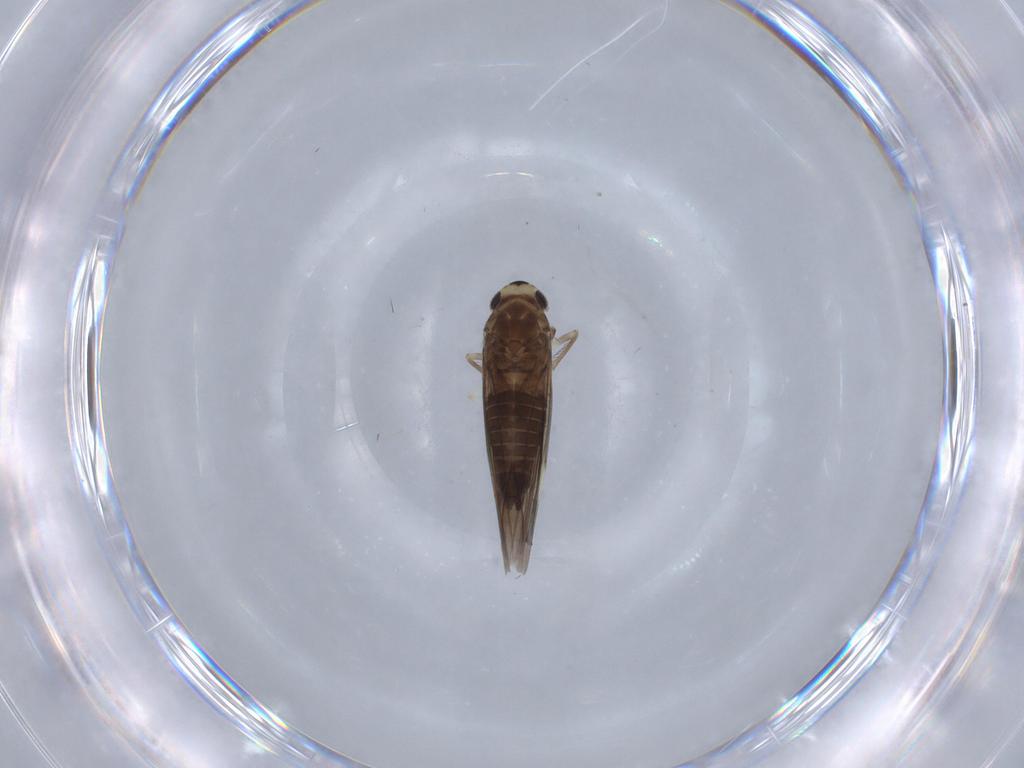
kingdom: Animalia
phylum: Arthropoda
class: Insecta
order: Hemiptera
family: Cicadellidae
